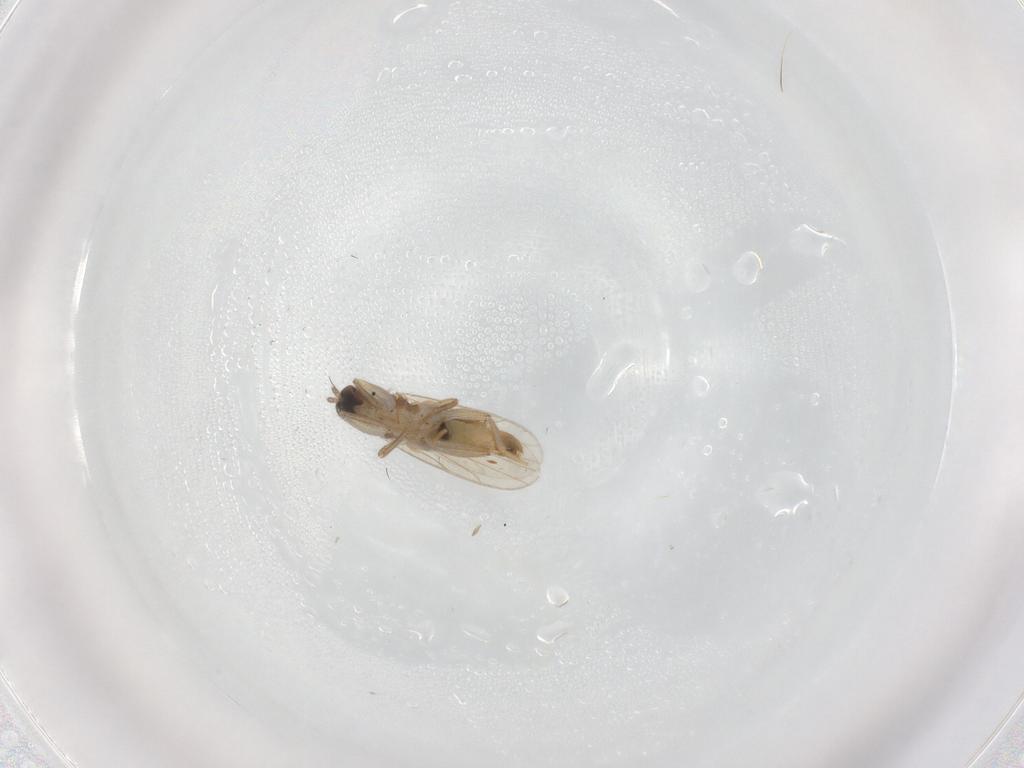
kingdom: Animalia
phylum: Arthropoda
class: Insecta
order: Diptera
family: Hybotidae
